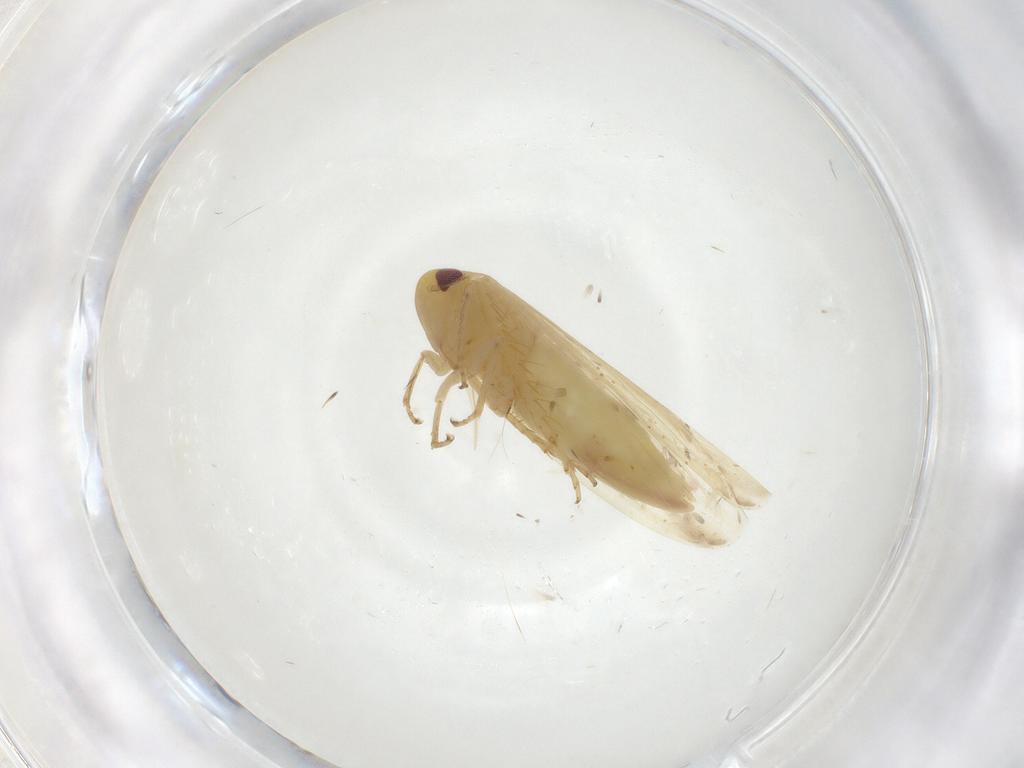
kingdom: Animalia
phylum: Arthropoda
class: Insecta
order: Hemiptera
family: Cicadellidae
